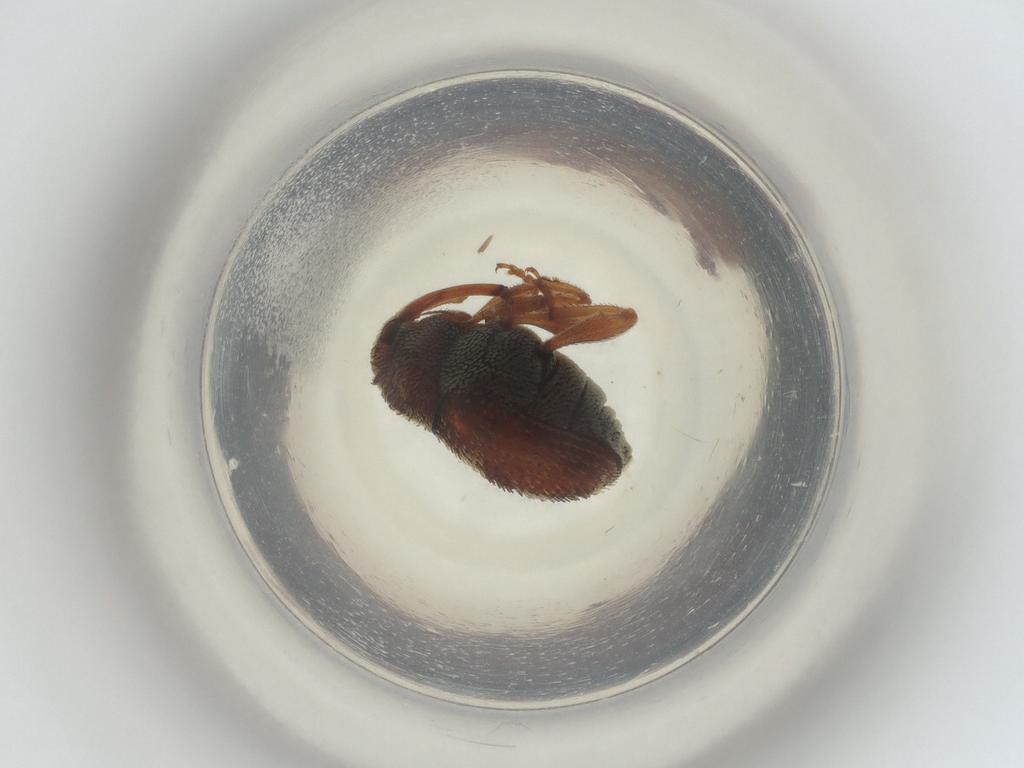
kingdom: Animalia
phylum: Arthropoda
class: Insecta
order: Coleoptera
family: Curculionidae
